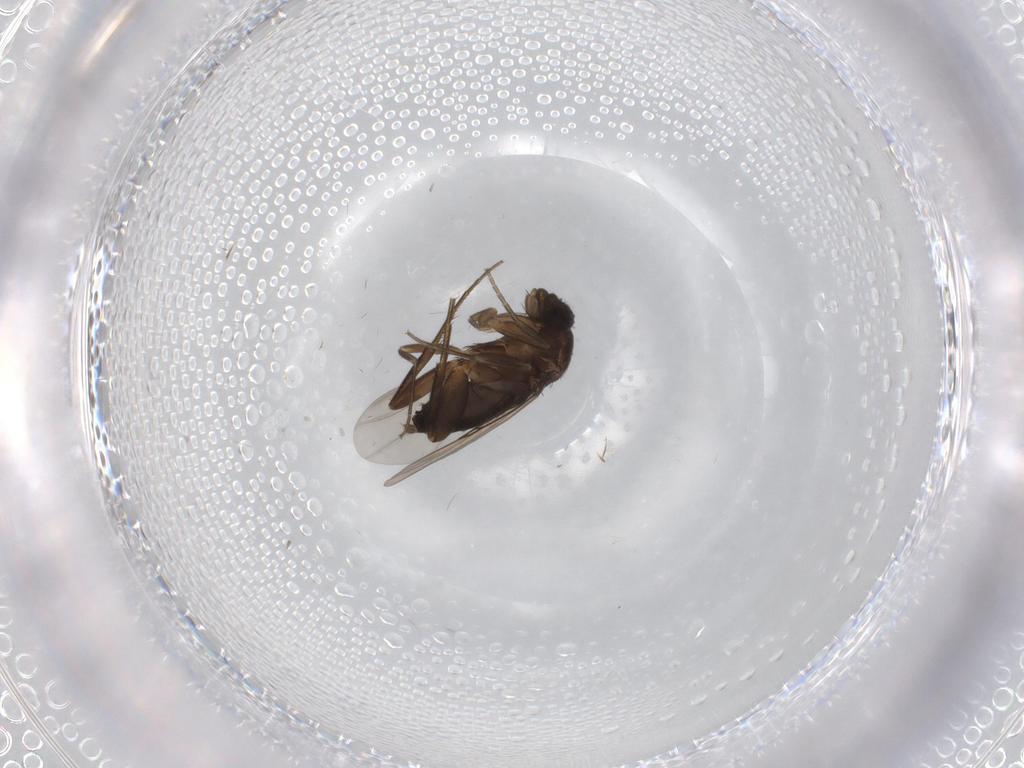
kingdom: Animalia
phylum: Arthropoda
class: Insecta
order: Diptera
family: Phoridae
